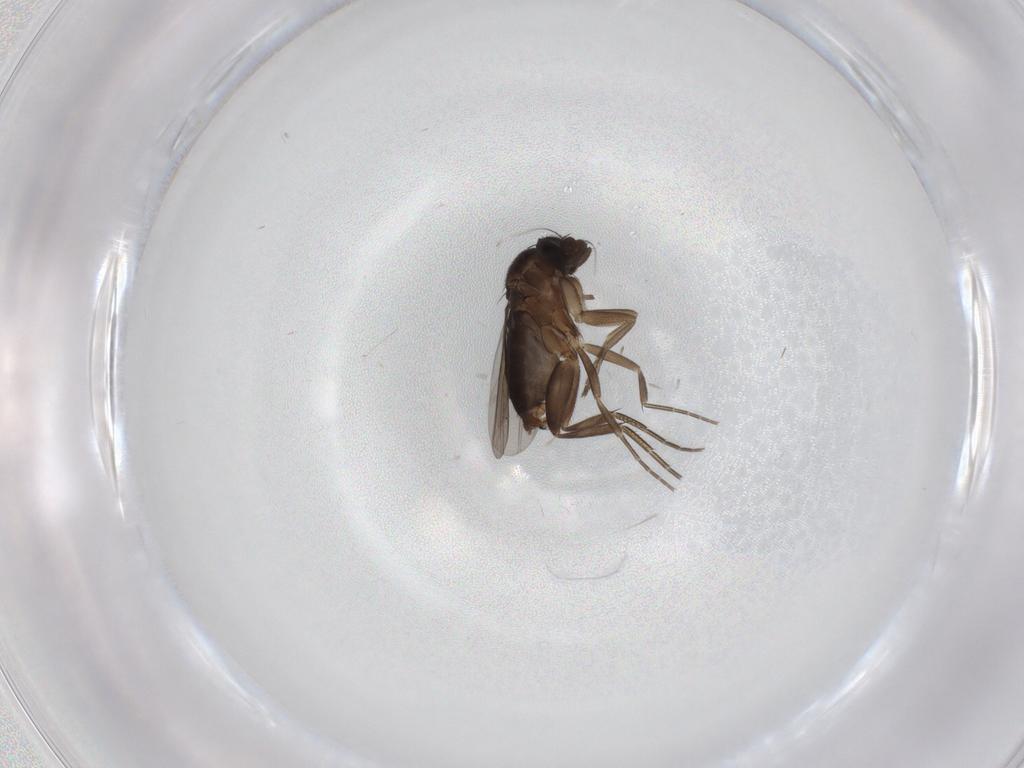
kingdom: Animalia
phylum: Arthropoda
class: Insecta
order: Diptera
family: Phoridae
